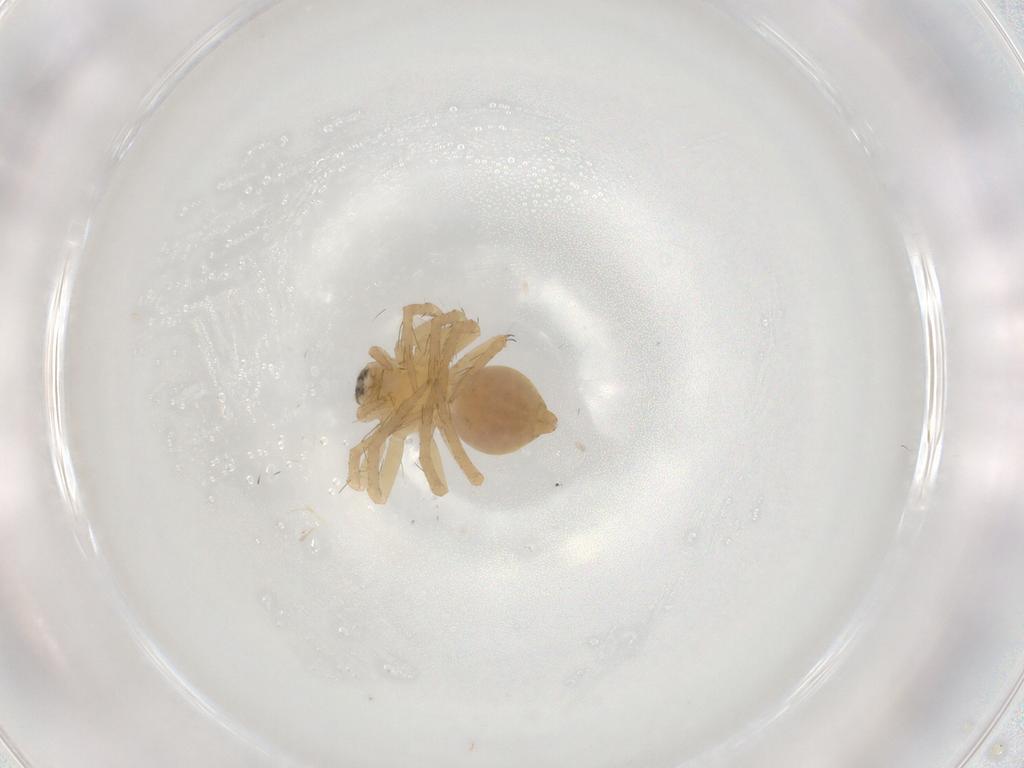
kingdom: Animalia
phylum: Arthropoda
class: Arachnida
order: Araneae
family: Oxyopidae
